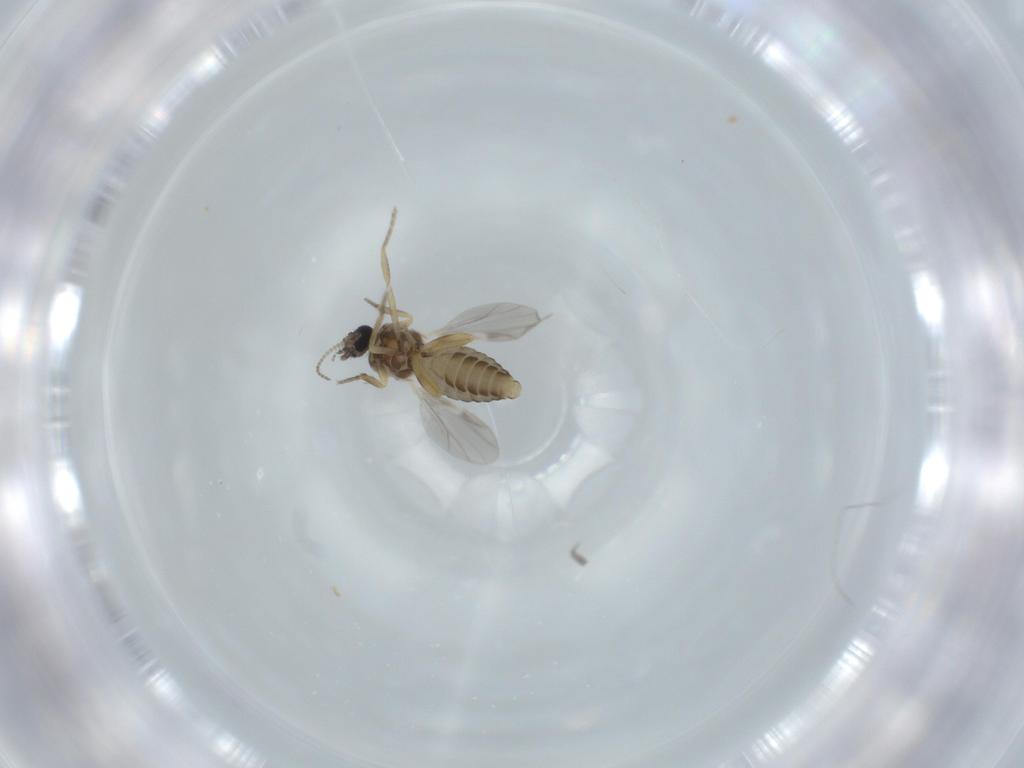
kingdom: Animalia
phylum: Arthropoda
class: Insecta
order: Diptera
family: Ceratopogonidae
